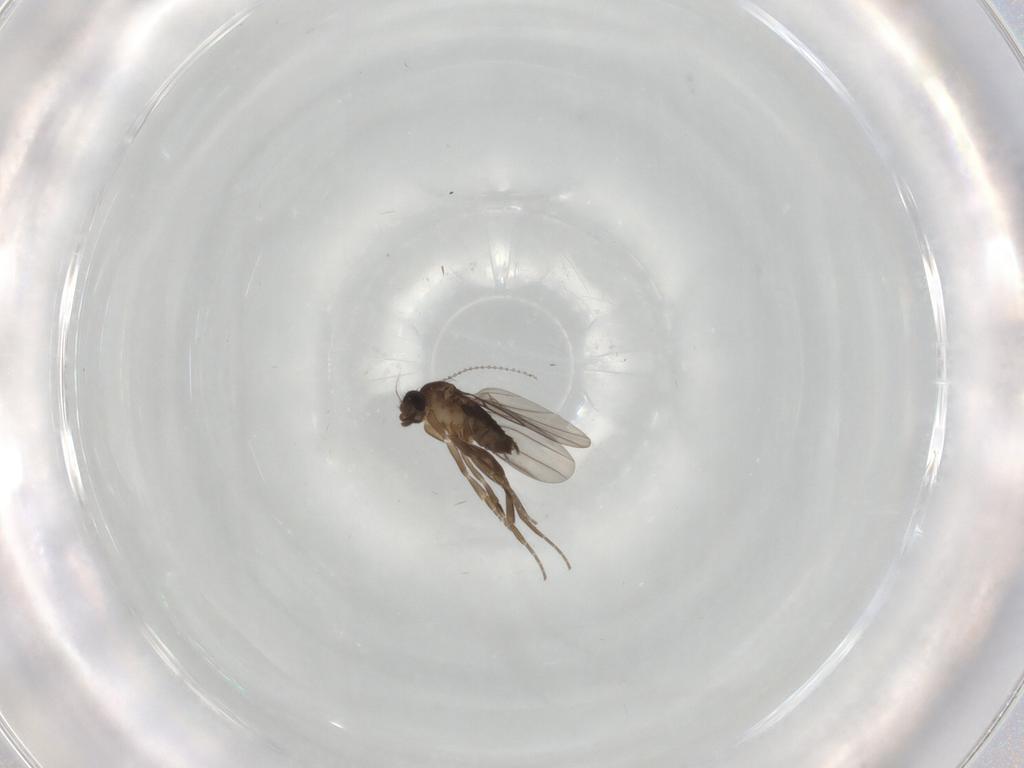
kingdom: Animalia
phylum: Arthropoda
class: Insecta
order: Diptera
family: Phoridae
